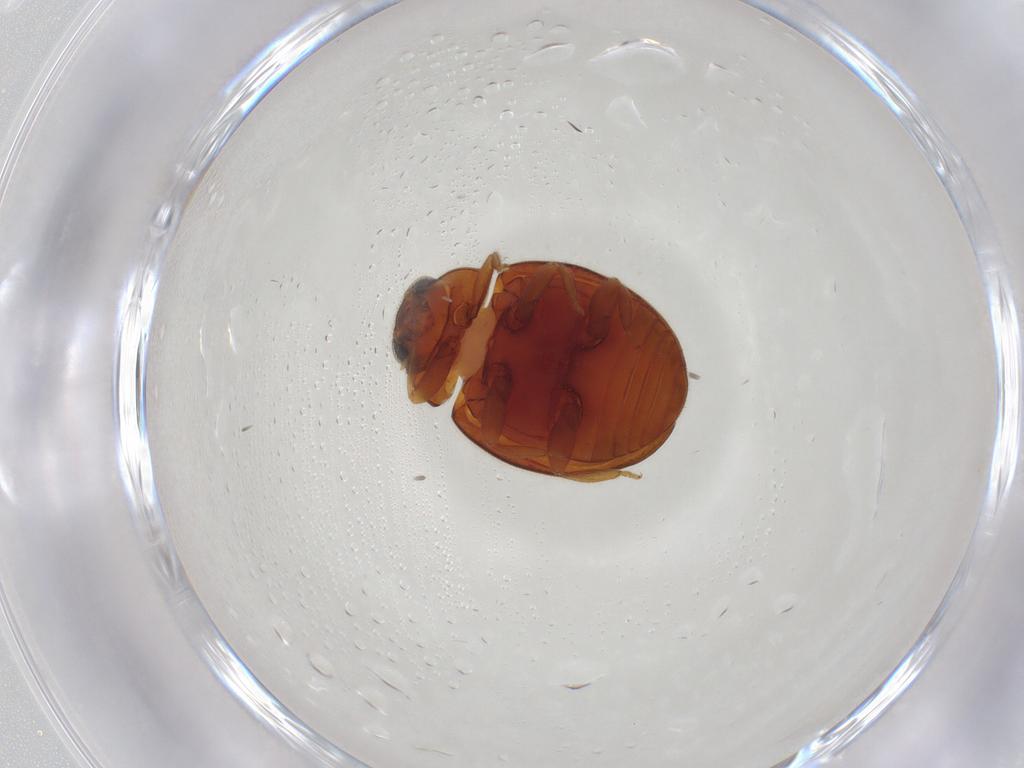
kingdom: Animalia
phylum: Arthropoda
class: Insecta
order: Coleoptera
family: Coccinellidae
